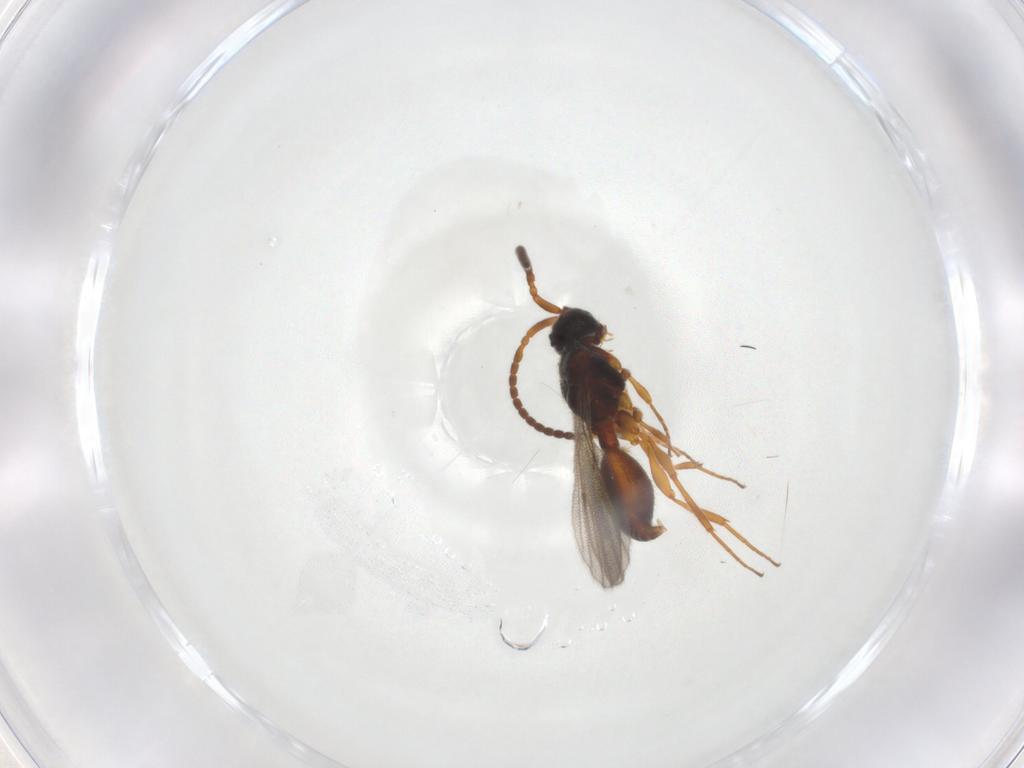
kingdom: Animalia
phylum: Arthropoda
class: Insecta
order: Hymenoptera
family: Diapriidae
